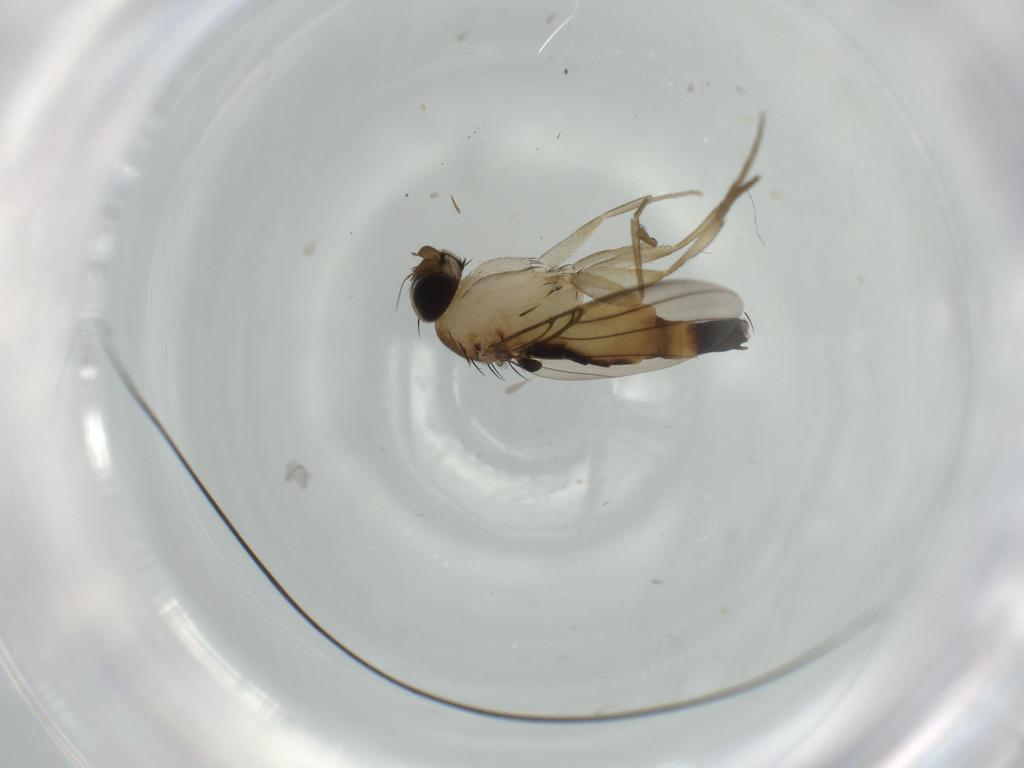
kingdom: Animalia
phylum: Arthropoda
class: Insecta
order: Diptera
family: Phoridae
